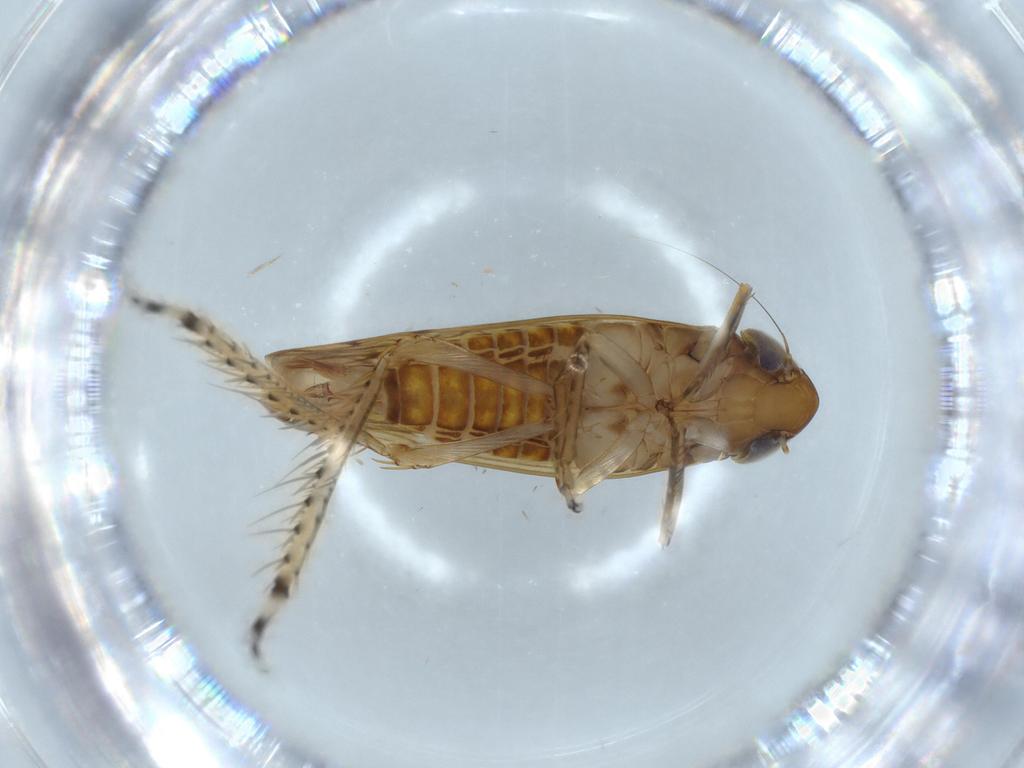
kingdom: Animalia
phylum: Arthropoda
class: Insecta
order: Hemiptera
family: Cicadellidae
